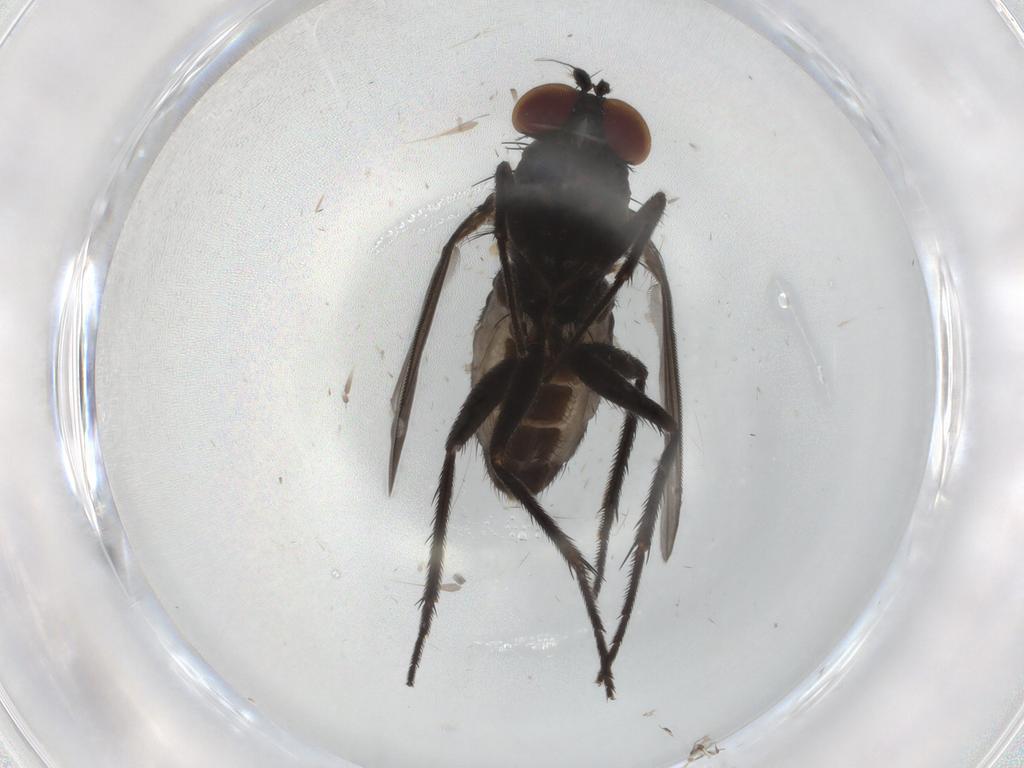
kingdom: Animalia
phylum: Arthropoda
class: Insecta
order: Diptera
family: Dolichopodidae
